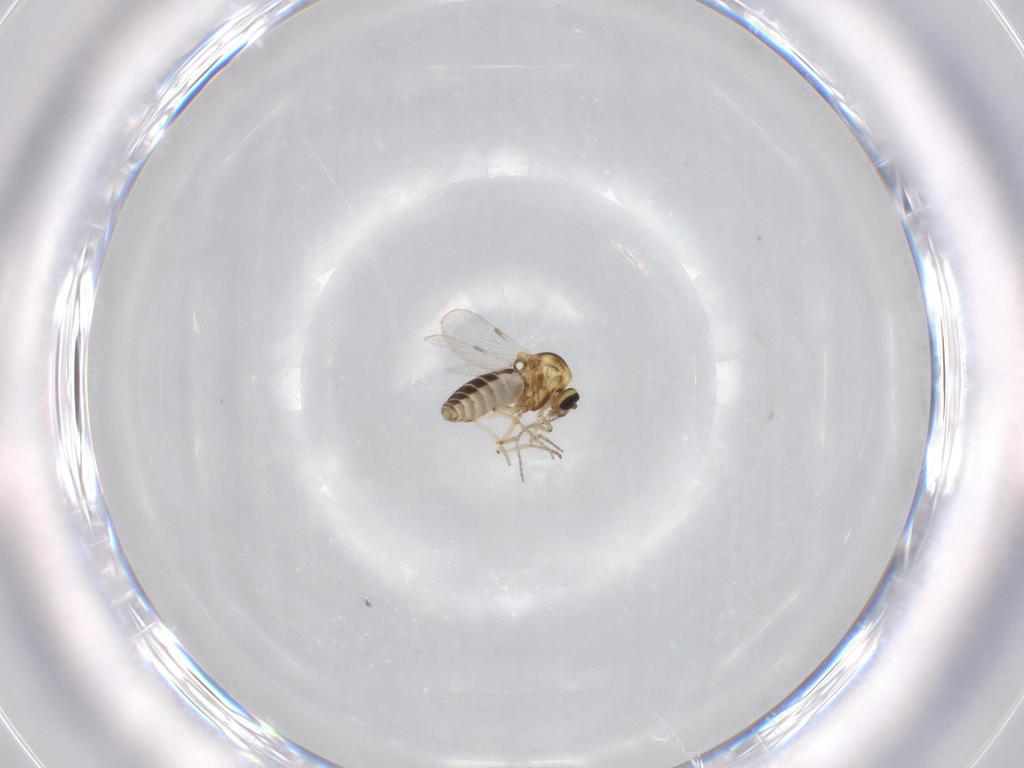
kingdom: Animalia
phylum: Arthropoda
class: Insecta
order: Diptera
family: Ceratopogonidae
